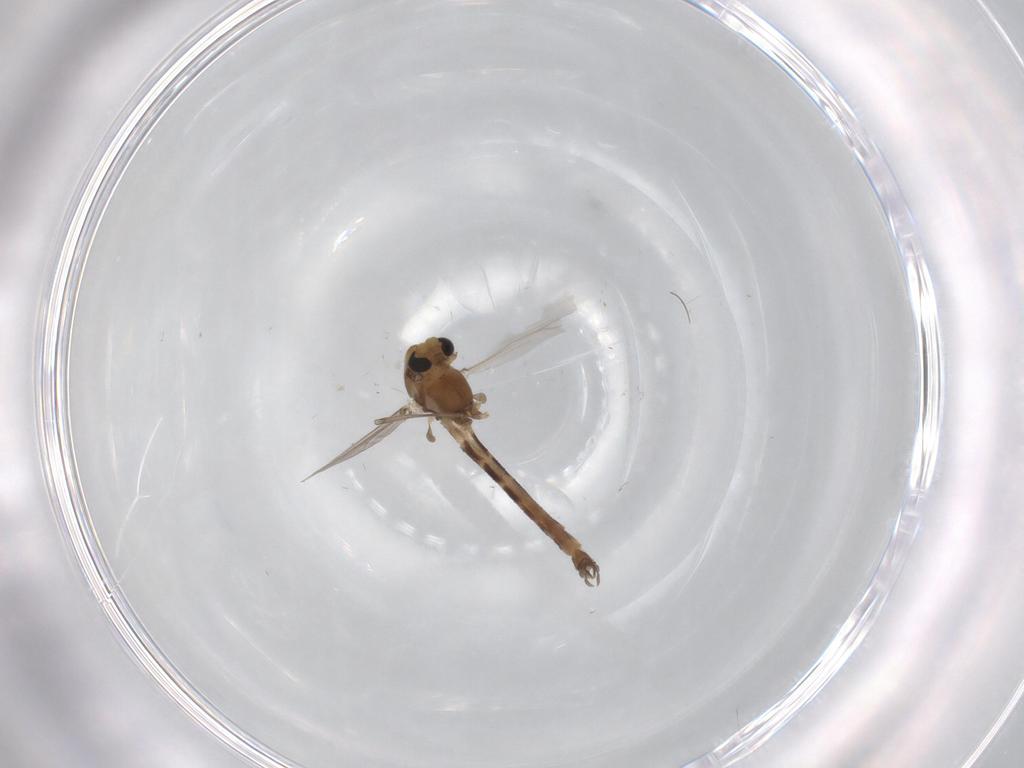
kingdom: Animalia
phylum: Arthropoda
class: Insecta
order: Diptera
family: Chironomidae
